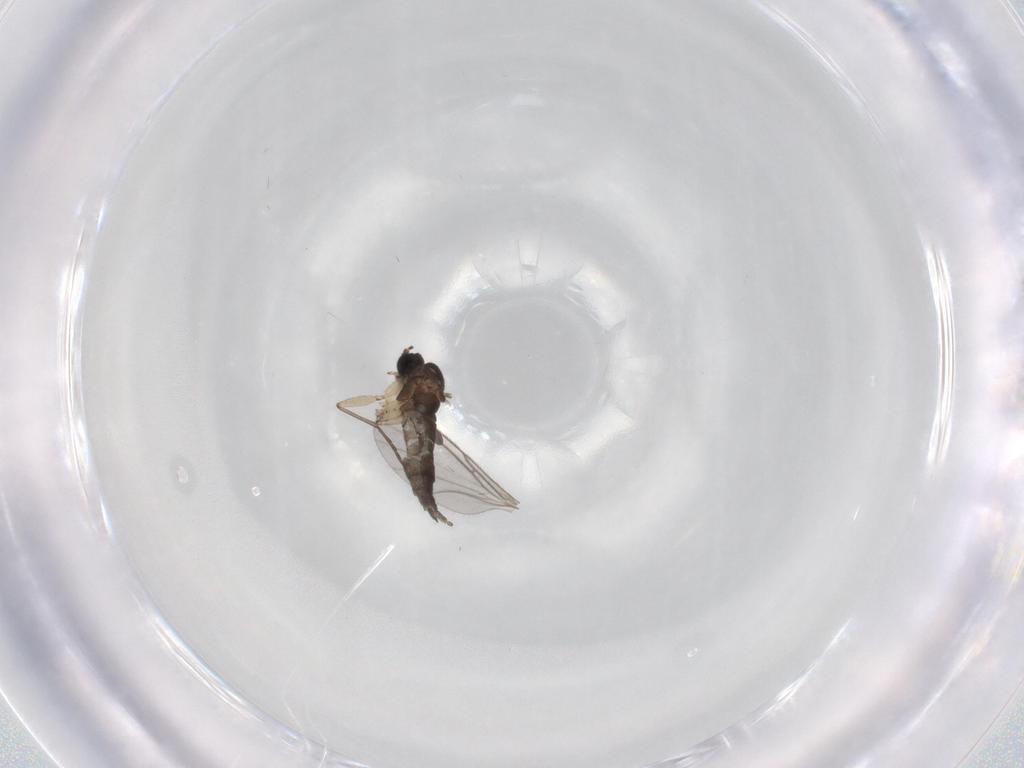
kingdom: Animalia
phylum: Arthropoda
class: Insecta
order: Diptera
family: Sciaridae
